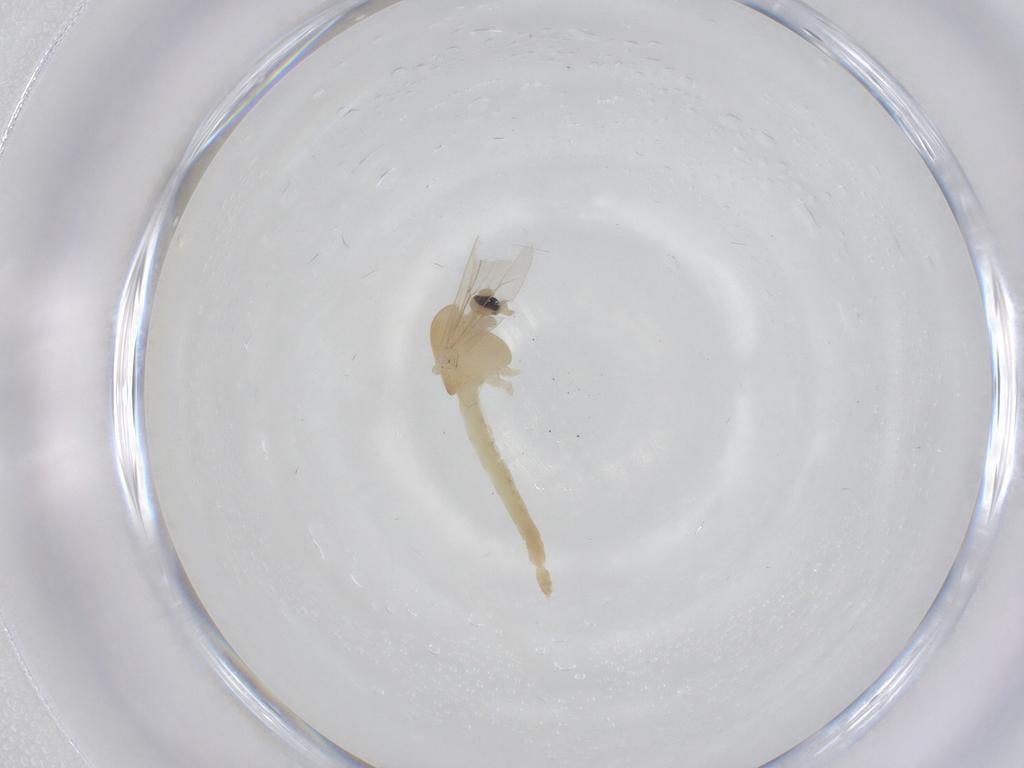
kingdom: Animalia
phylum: Arthropoda
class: Insecta
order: Diptera
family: Chironomidae
